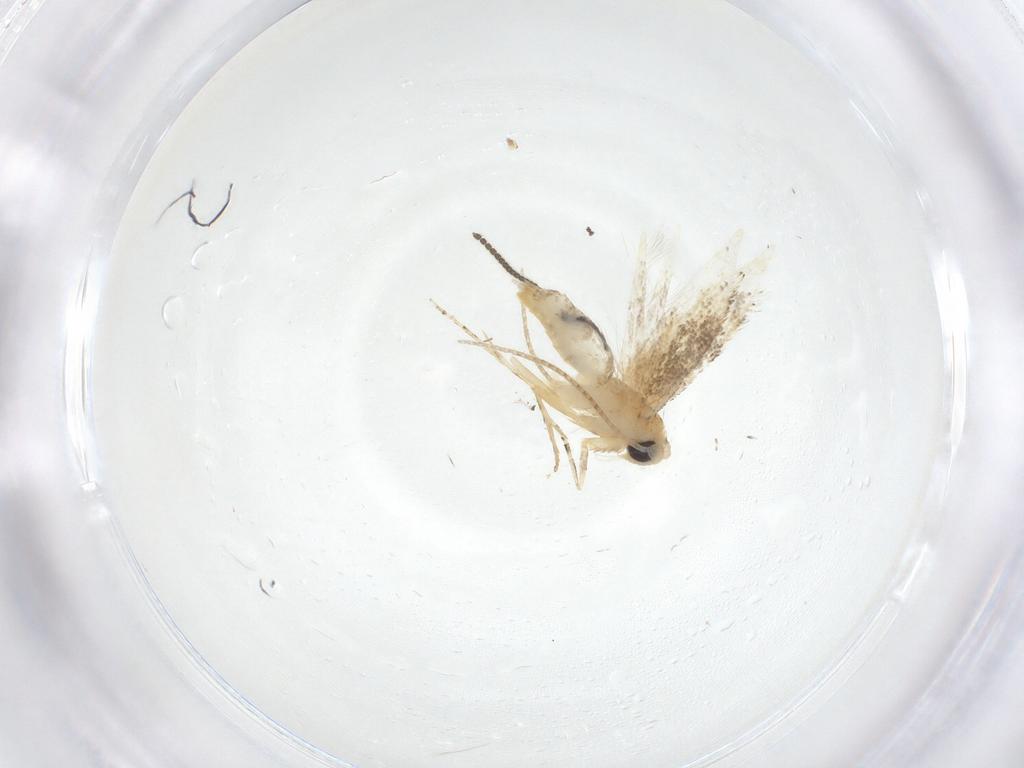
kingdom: Animalia
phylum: Arthropoda
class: Insecta
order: Lepidoptera
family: Bucculatricidae
